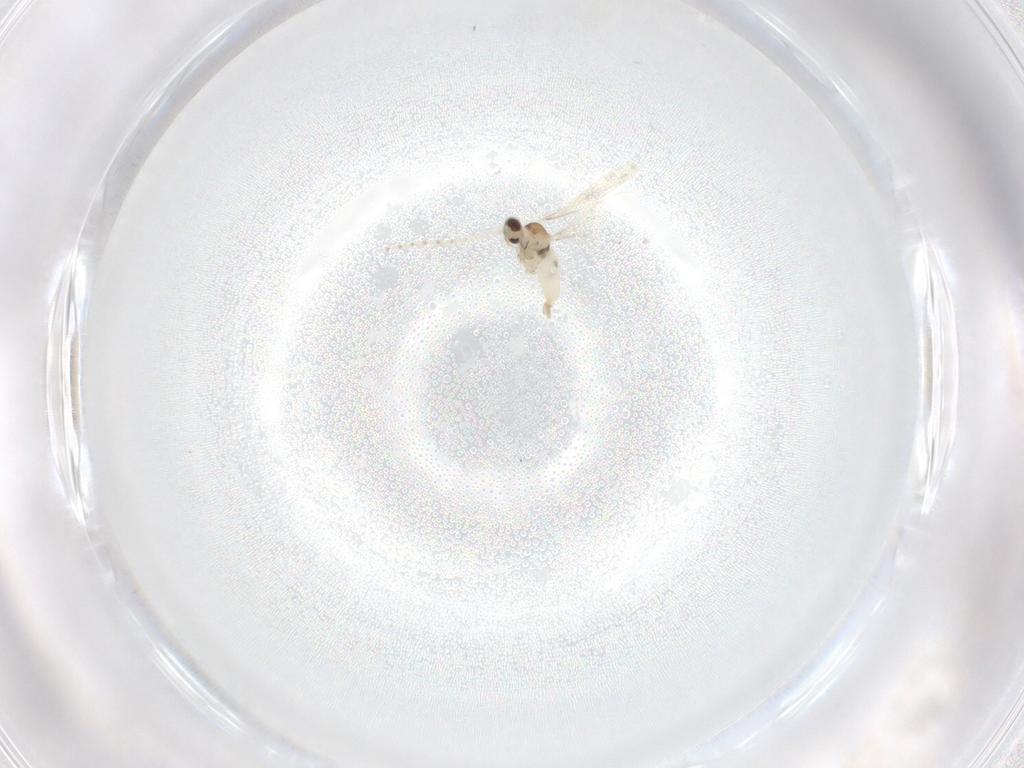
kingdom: Animalia
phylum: Arthropoda
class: Insecta
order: Diptera
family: Cecidomyiidae
